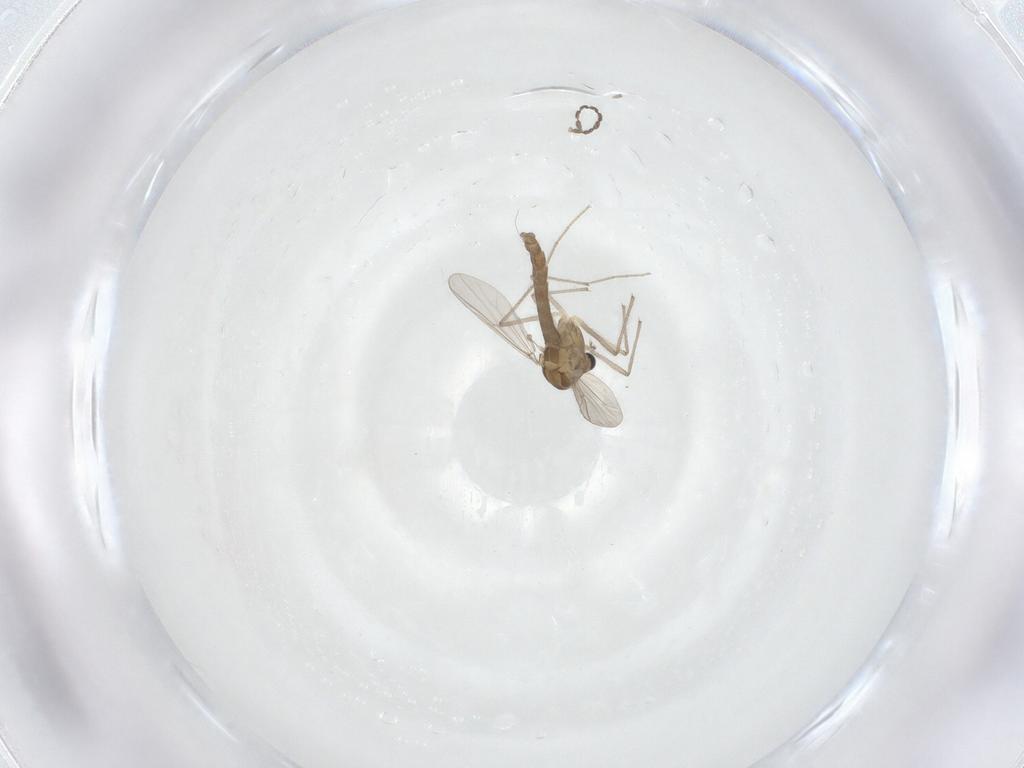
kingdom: Animalia
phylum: Arthropoda
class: Insecta
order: Diptera
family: Chironomidae
